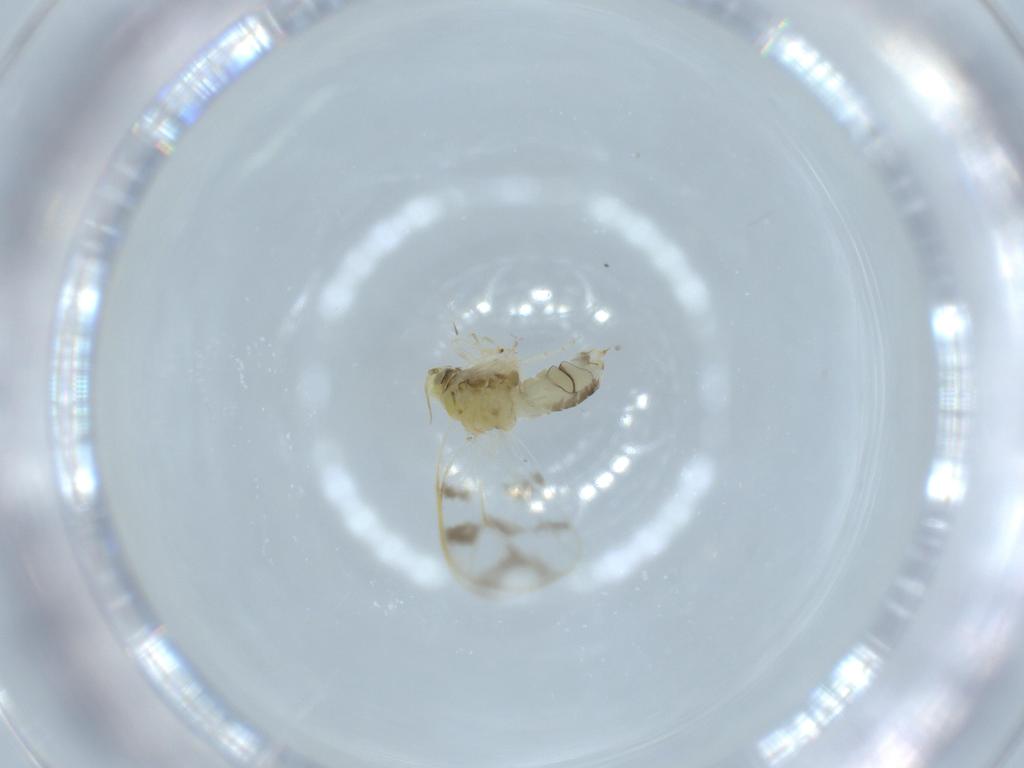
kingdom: Animalia
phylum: Arthropoda
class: Insecta
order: Hemiptera
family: Aleyrodidae
